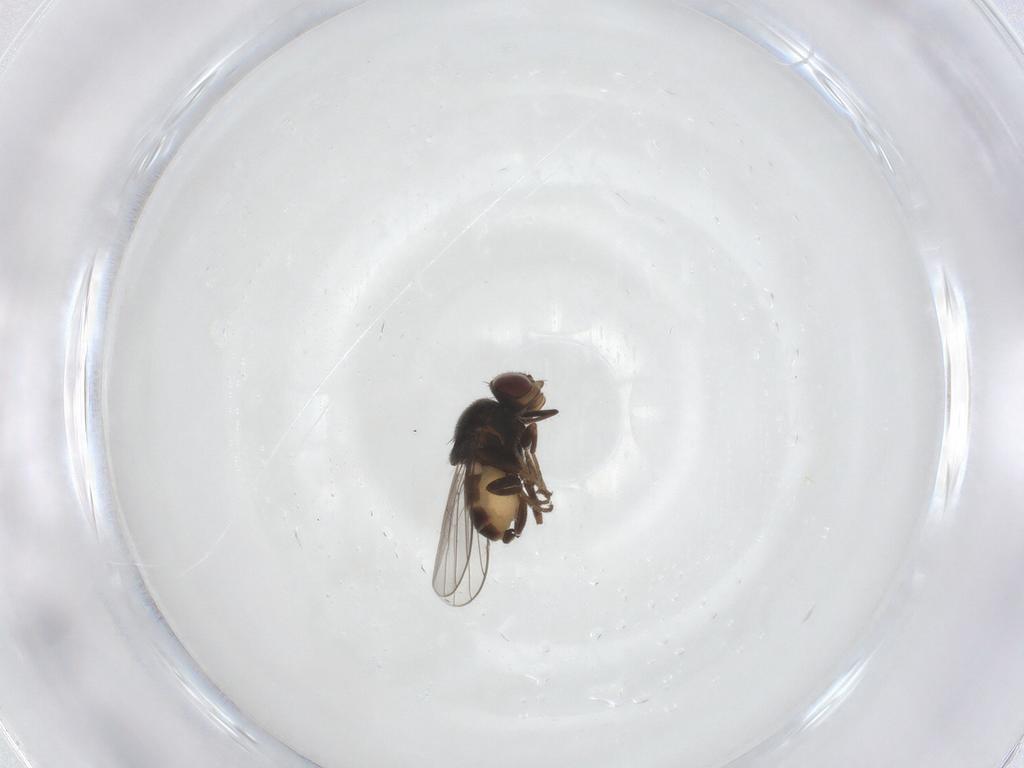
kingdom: Animalia
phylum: Arthropoda
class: Insecta
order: Diptera
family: Chloropidae
